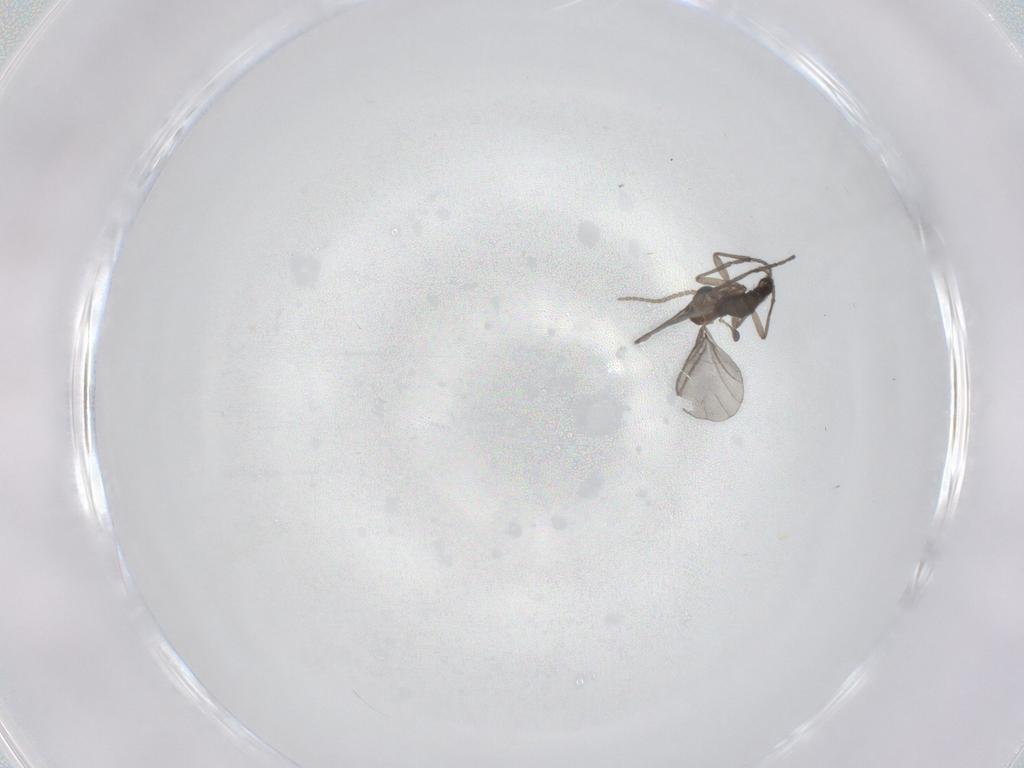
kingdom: Animalia
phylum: Arthropoda
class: Insecta
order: Diptera
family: Sciaridae
